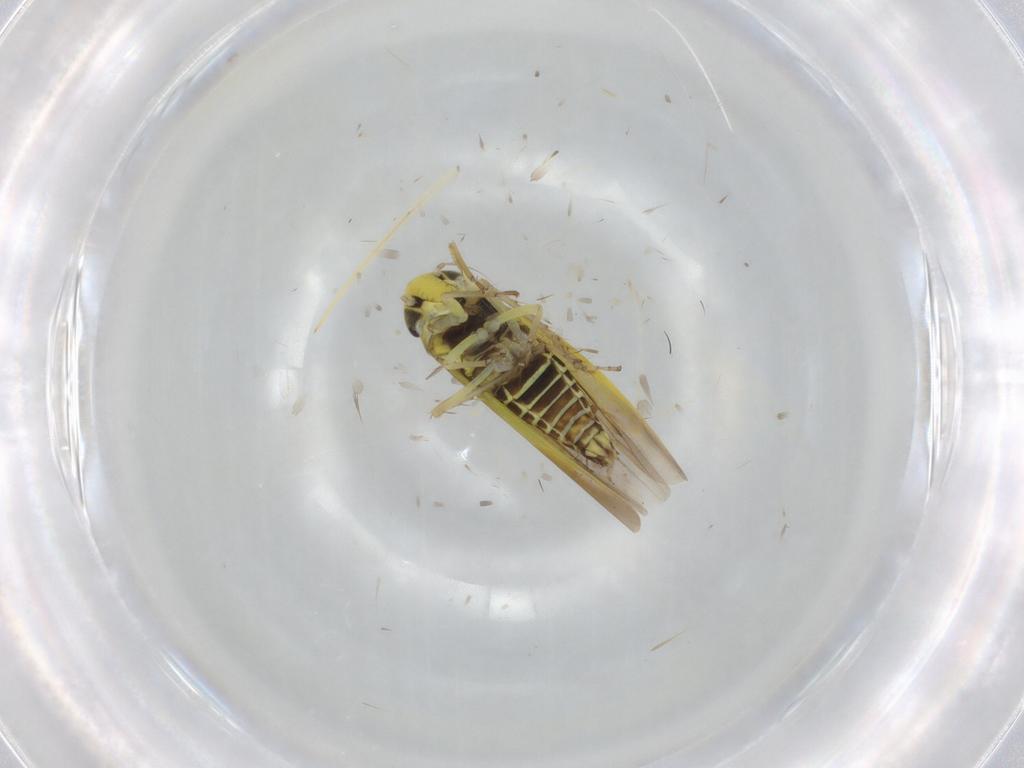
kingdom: Animalia
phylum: Arthropoda
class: Insecta
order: Hemiptera
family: Cicadellidae
